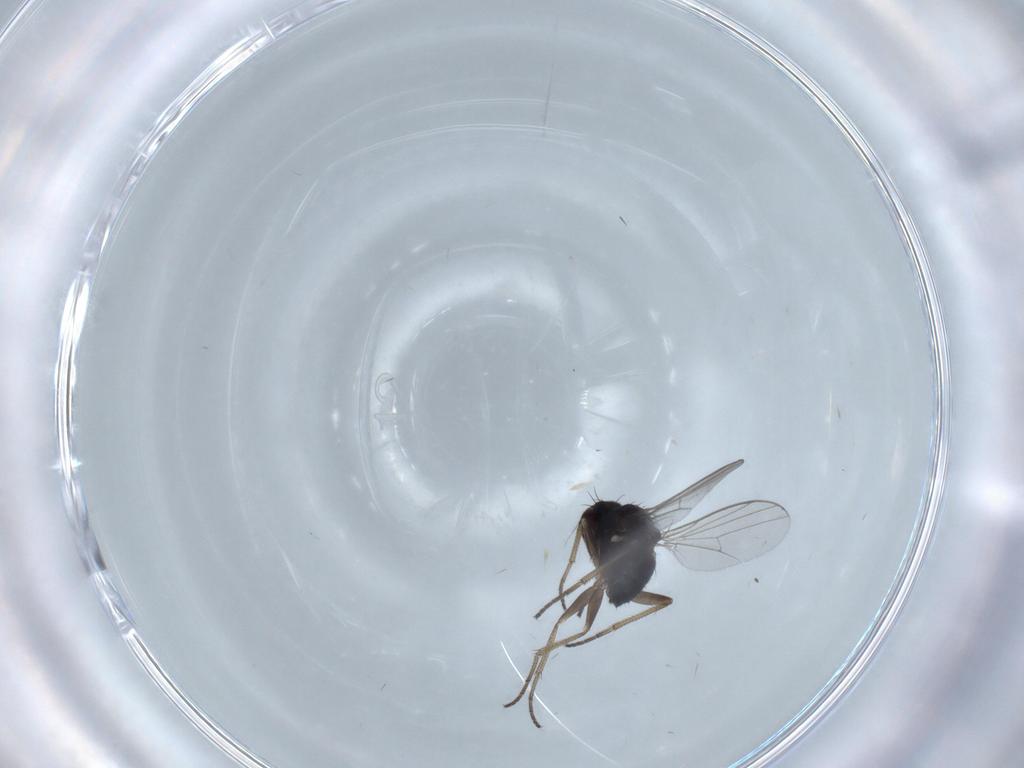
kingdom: Animalia
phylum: Arthropoda
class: Insecta
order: Diptera
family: Dolichopodidae
